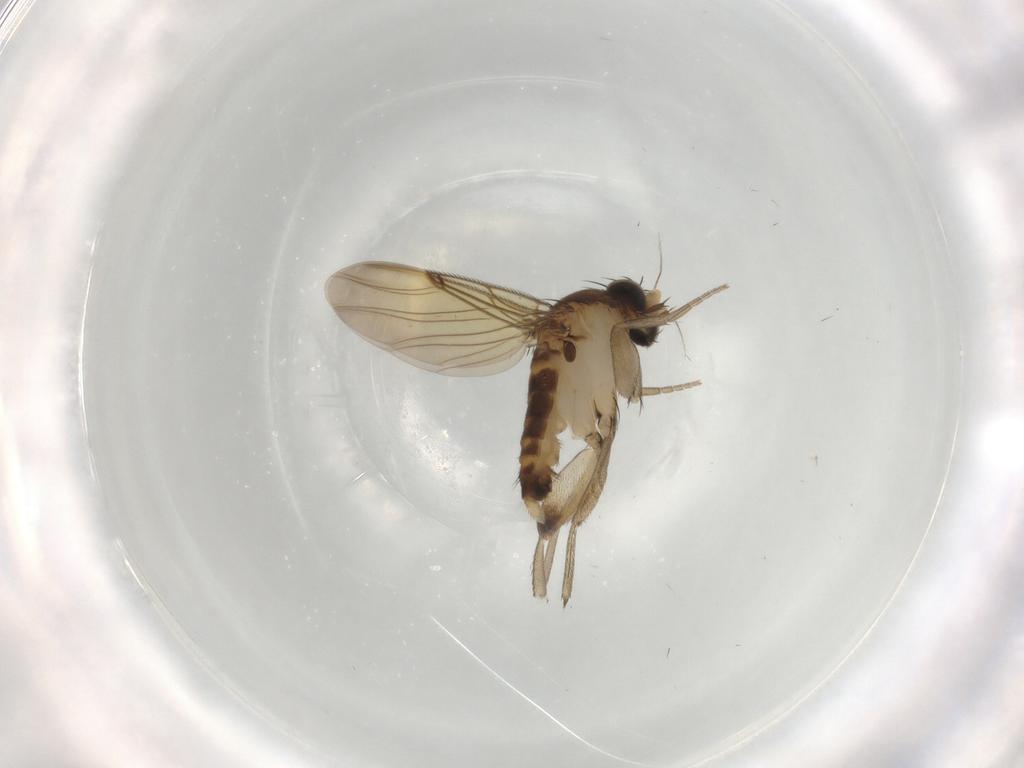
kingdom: Animalia
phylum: Arthropoda
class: Insecta
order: Diptera
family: Phoridae
